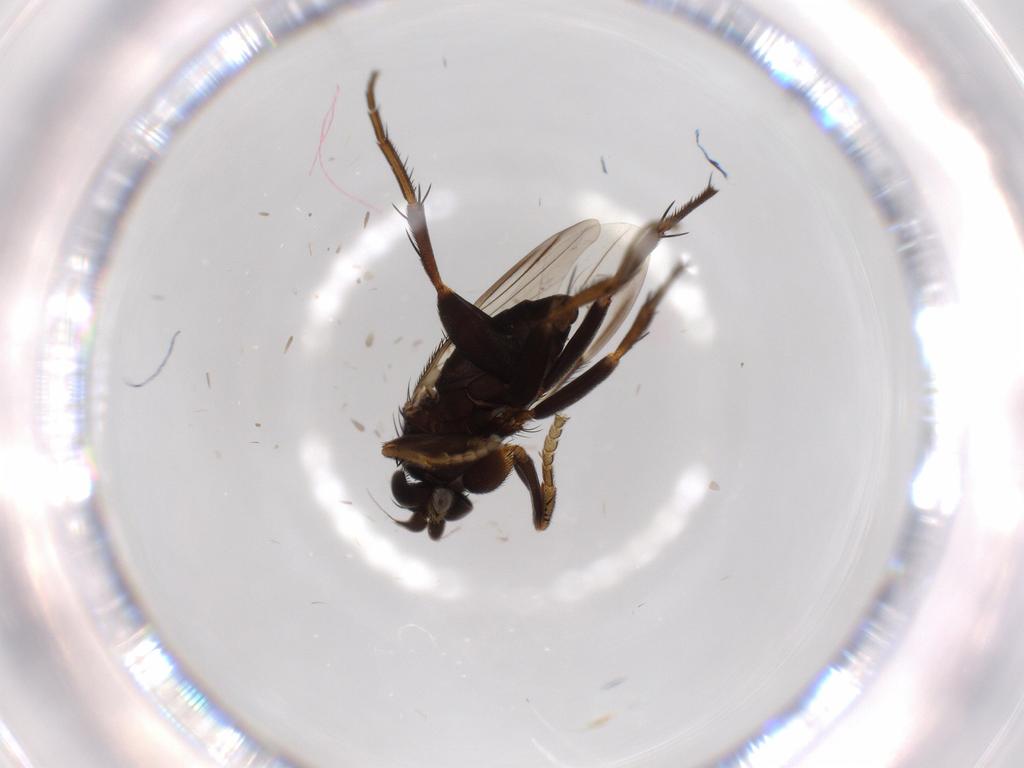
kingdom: Animalia
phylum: Arthropoda
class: Insecta
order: Diptera
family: Phoridae
